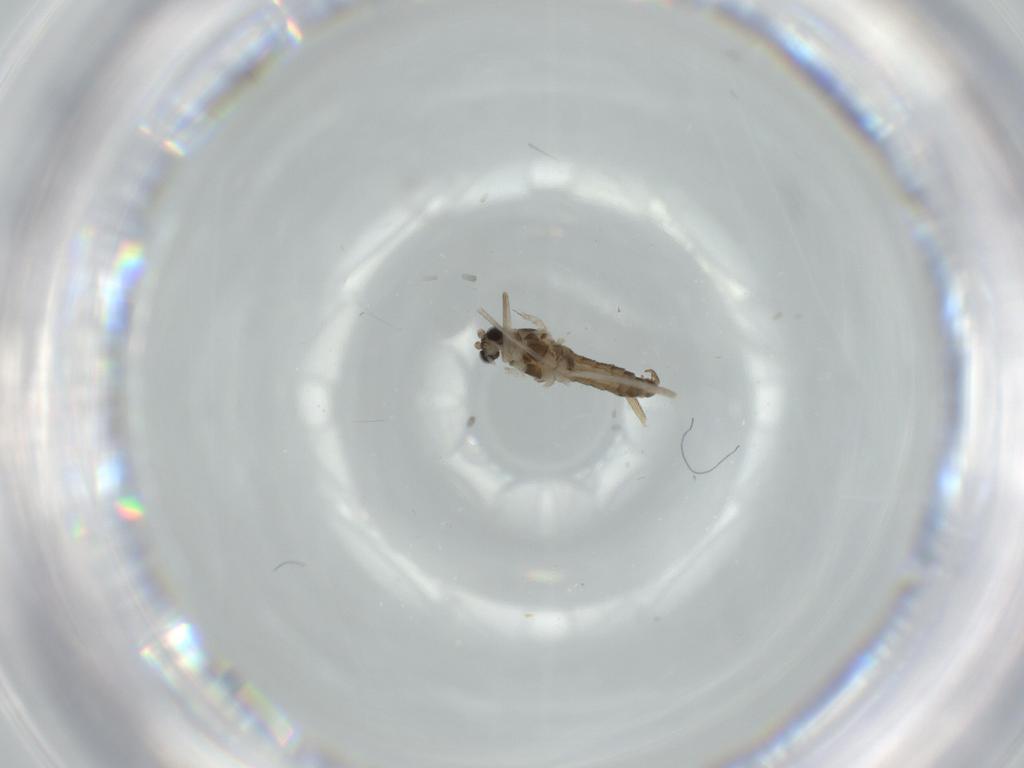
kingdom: Animalia
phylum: Arthropoda
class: Insecta
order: Diptera
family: Cecidomyiidae
